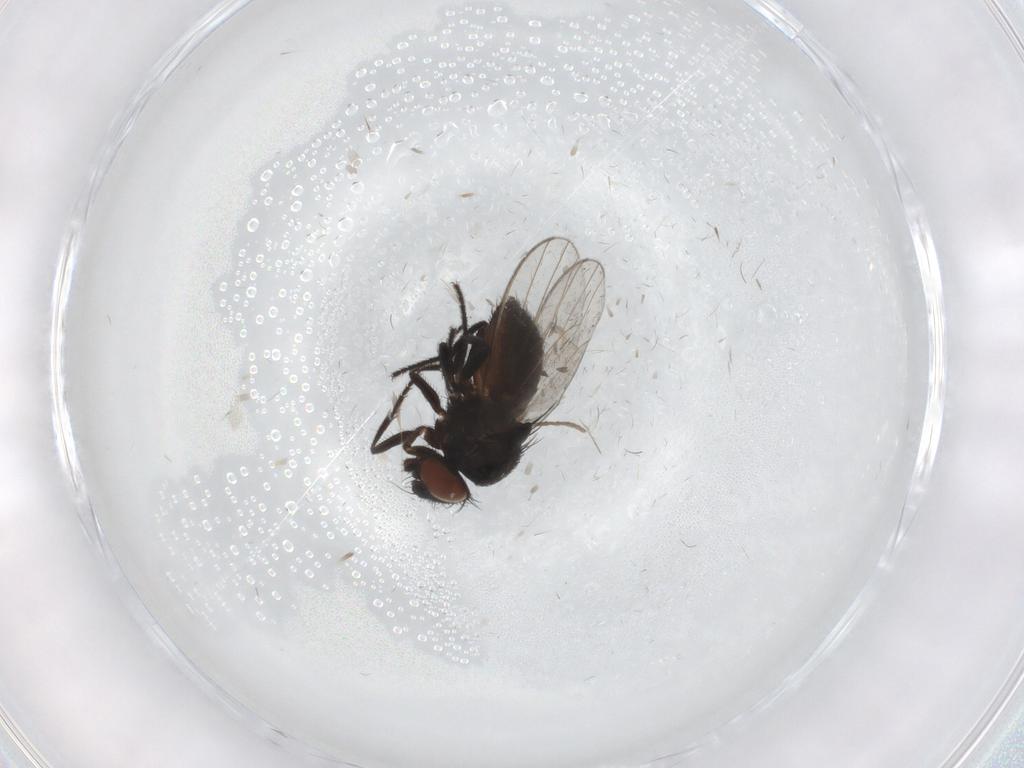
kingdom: Animalia
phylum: Arthropoda
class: Insecta
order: Diptera
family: Milichiidae
